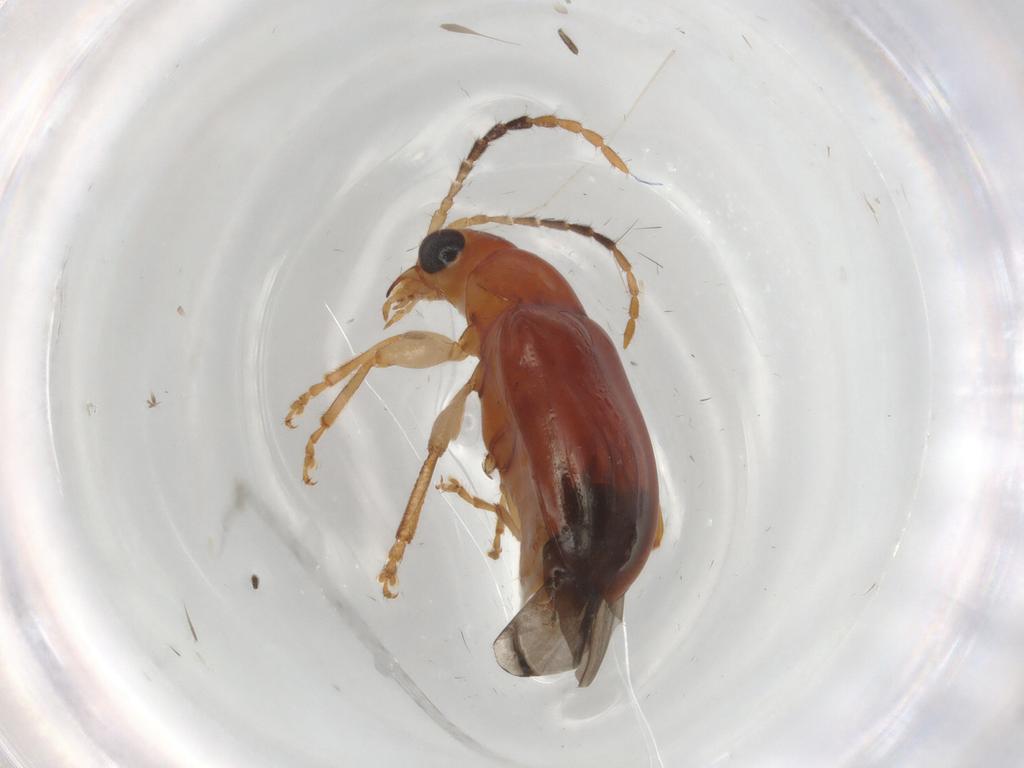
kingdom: Animalia
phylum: Arthropoda
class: Insecta
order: Coleoptera
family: Chrysomelidae
